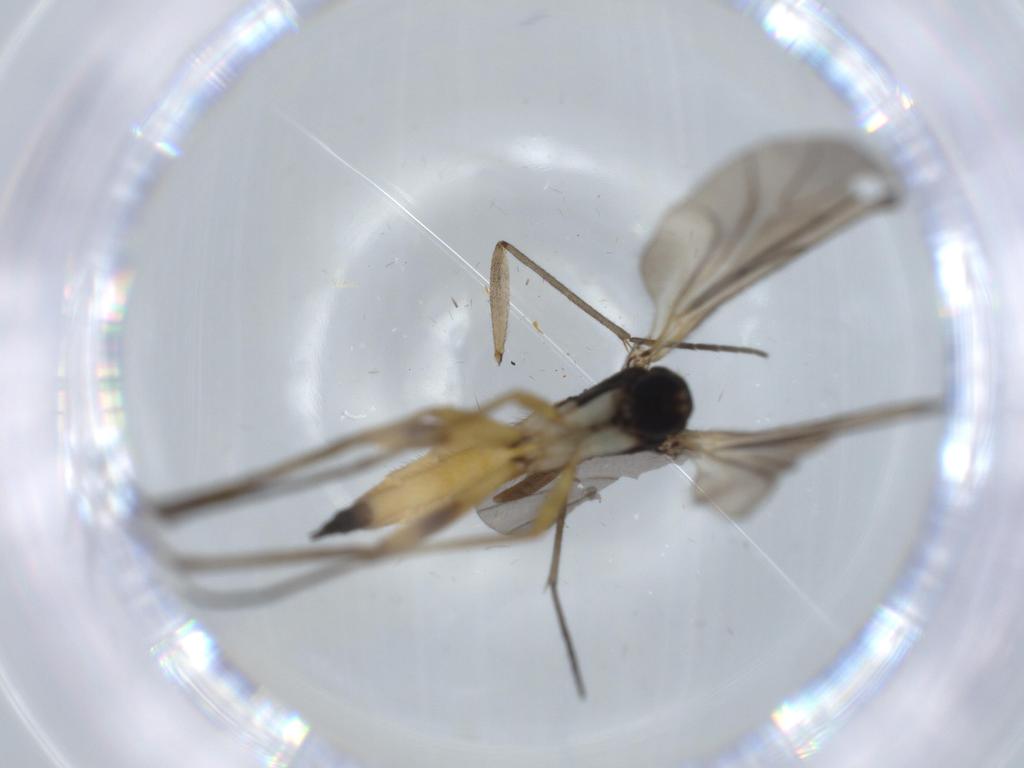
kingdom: Animalia
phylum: Arthropoda
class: Insecta
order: Diptera
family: Sciaridae
